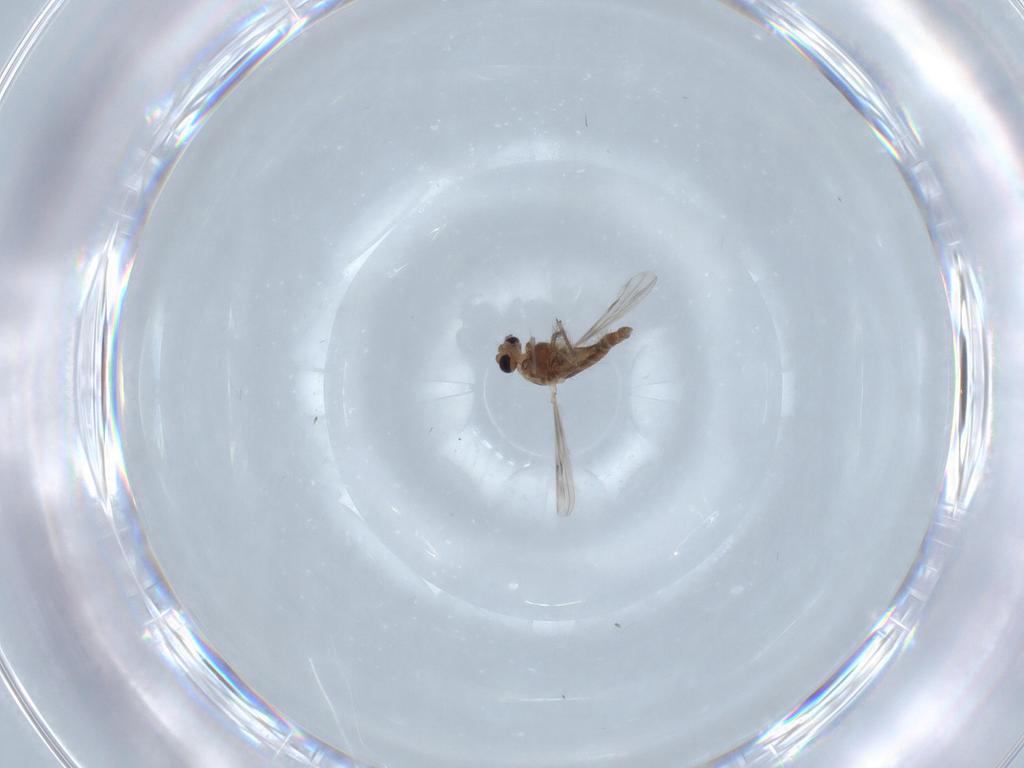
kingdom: Animalia
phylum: Arthropoda
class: Insecta
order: Diptera
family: Chironomidae
